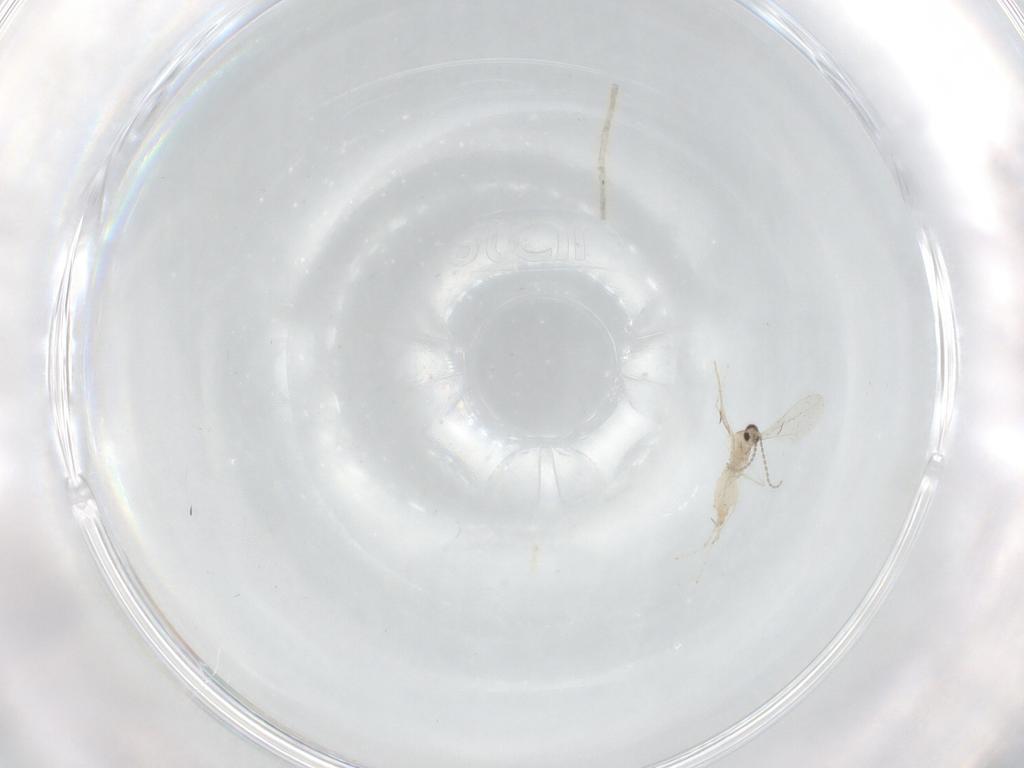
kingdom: Animalia
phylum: Arthropoda
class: Insecta
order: Diptera
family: Cecidomyiidae
